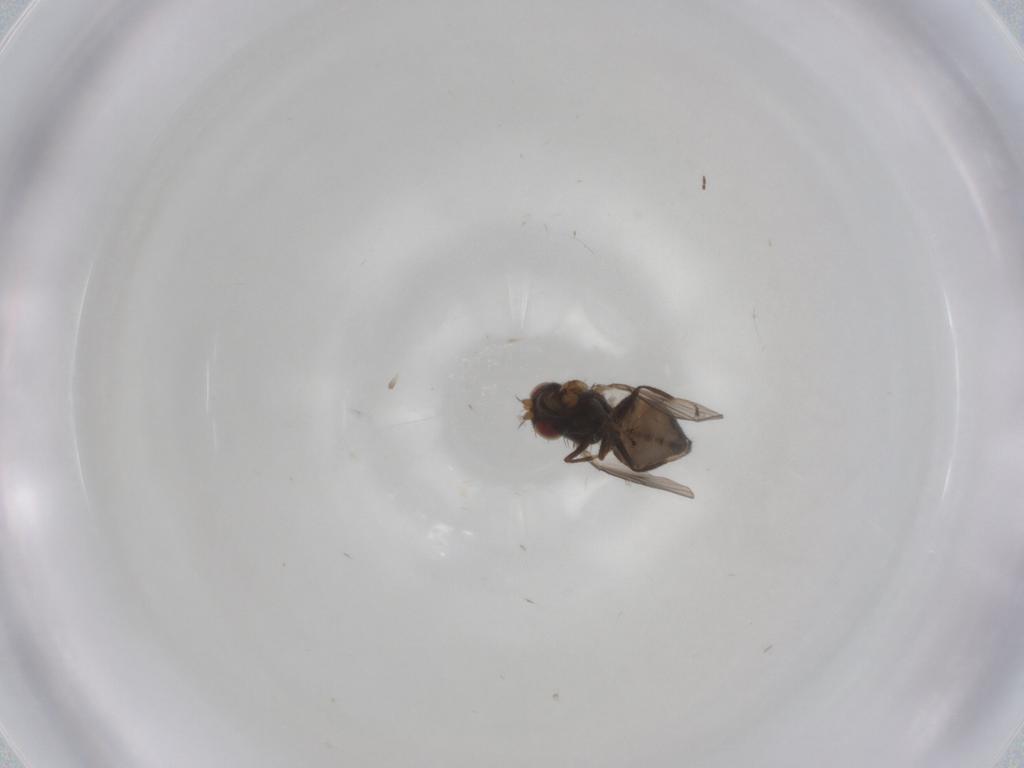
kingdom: Animalia
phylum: Arthropoda
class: Insecta
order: Diptera
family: Ephydridae
